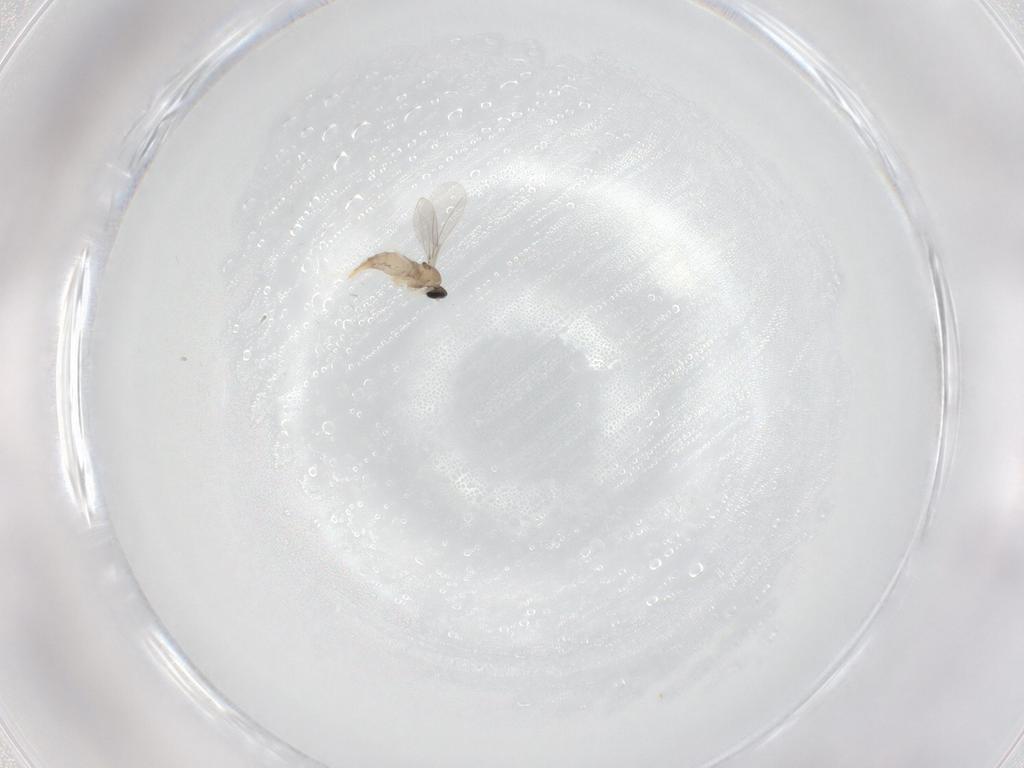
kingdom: Animalia
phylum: Arthropoda
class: Insecta
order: Diptera
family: Cecidomyiidae
